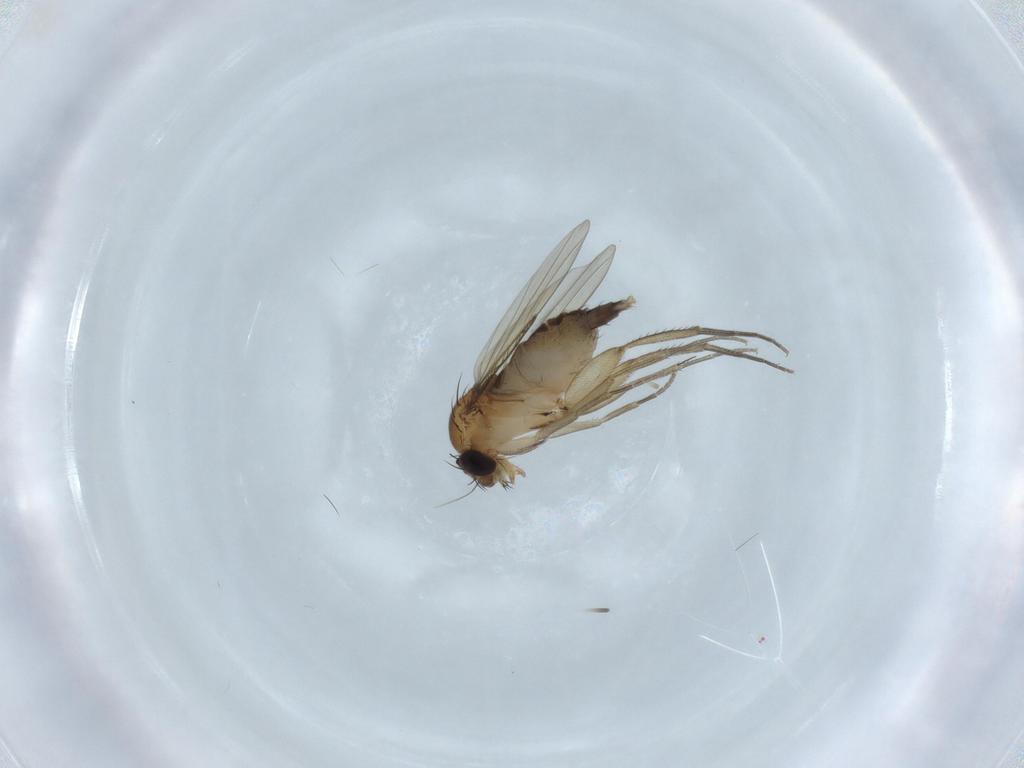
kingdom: Animalia
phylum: Arthropoda
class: Insecta
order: Diptera
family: Phoridae
